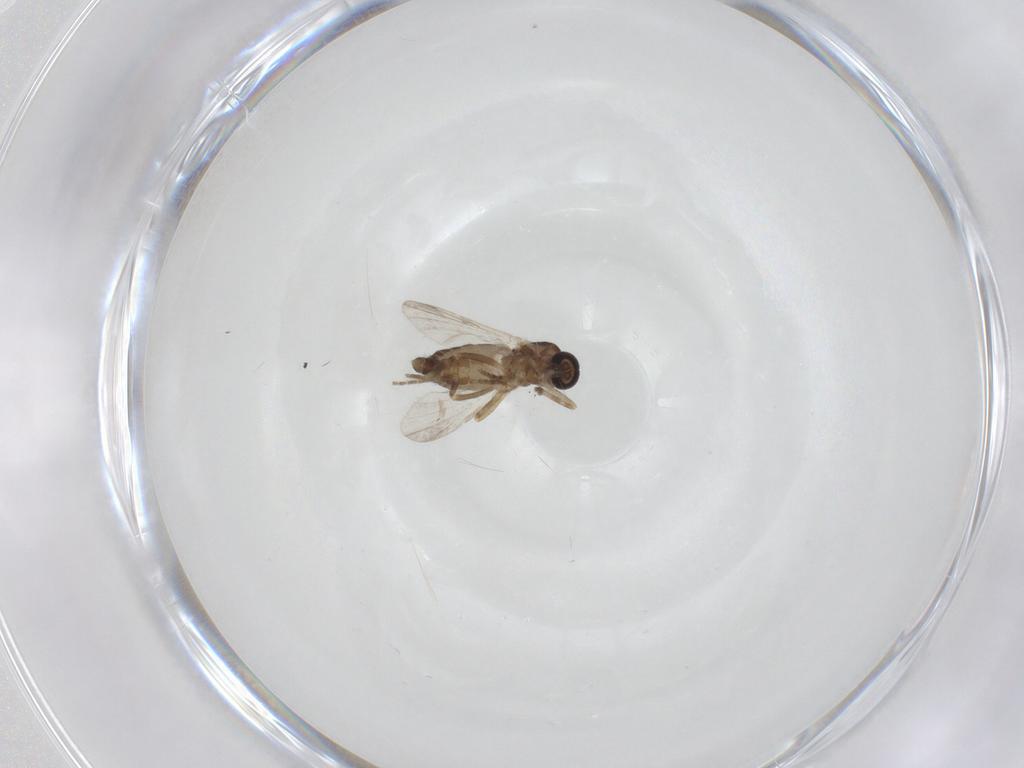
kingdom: Animalia
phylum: Arthropoda
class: Insecta
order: Diptera
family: Ceratopogonidae
